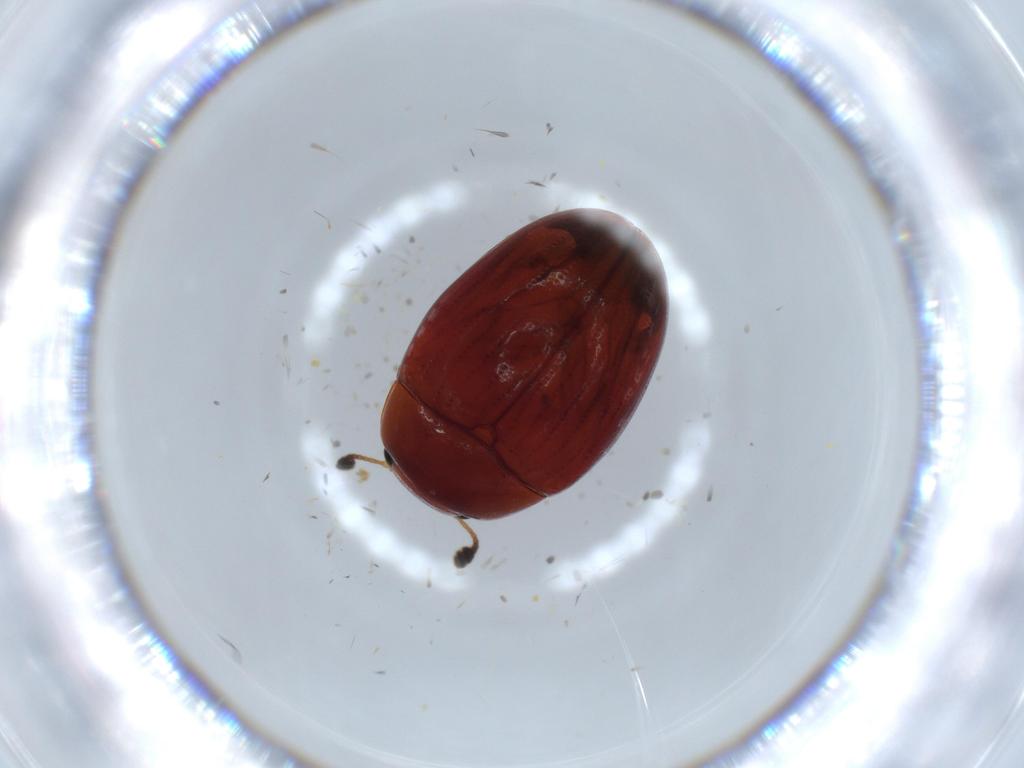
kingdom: Animalia
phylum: Arthropoda
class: Insecta
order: Coleoptera
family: Erotylidae
